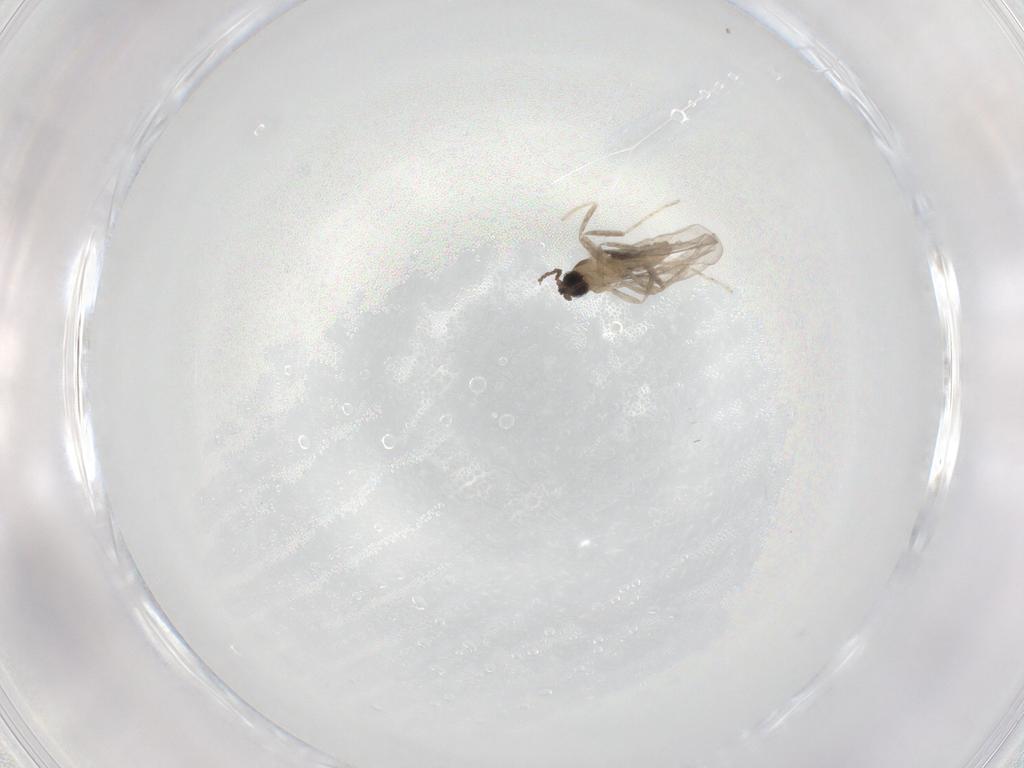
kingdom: Animalia
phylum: Arthropoda
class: Insecta
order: Diptera
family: Cecidomyiidae
